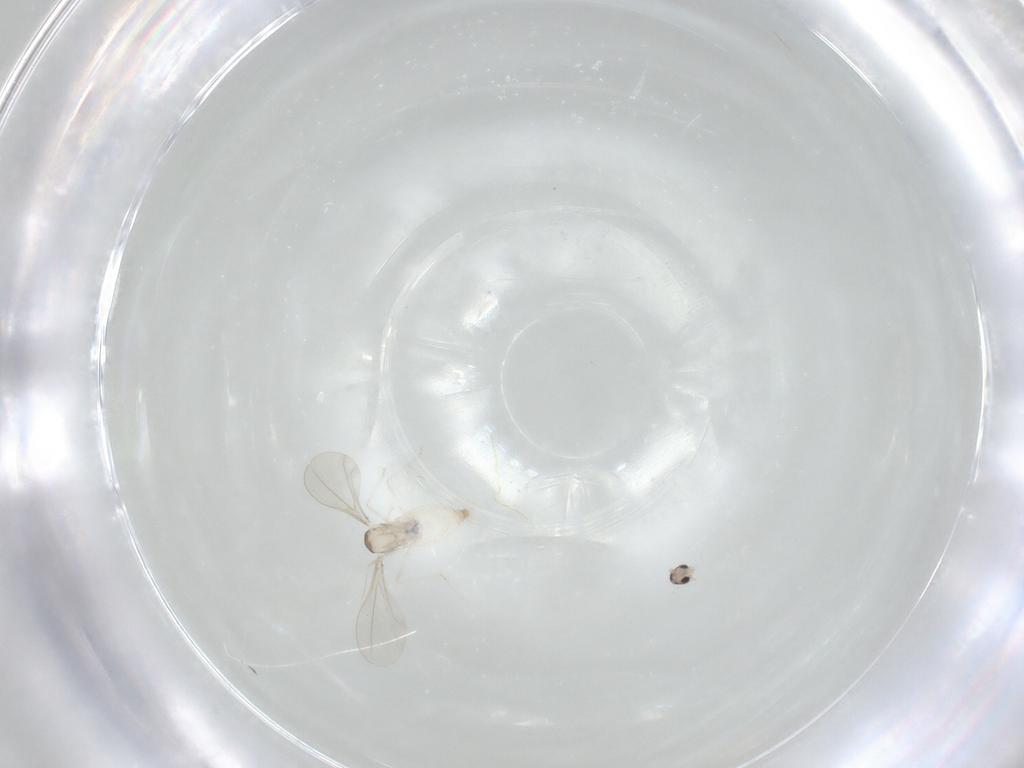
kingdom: Animalia
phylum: Arthropoda
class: Insecta
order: Diptera
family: Cecidomyiidae
